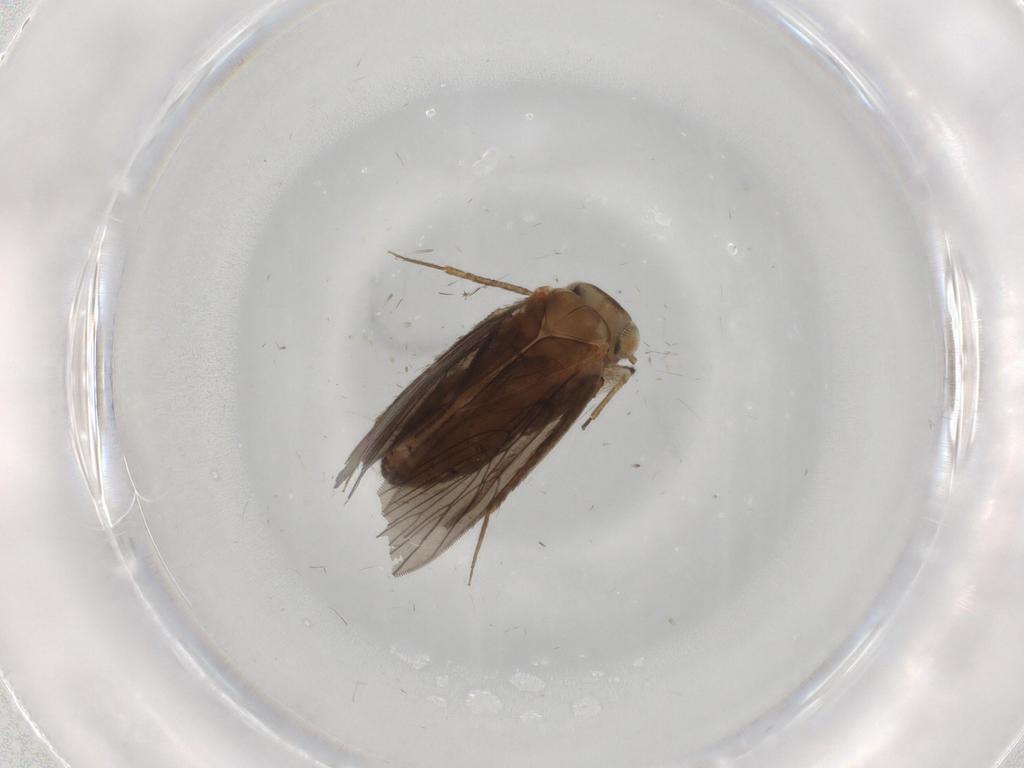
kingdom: Animalia
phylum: Arthropoda
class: Insecta
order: Psocodea
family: Lepidopsocidae
